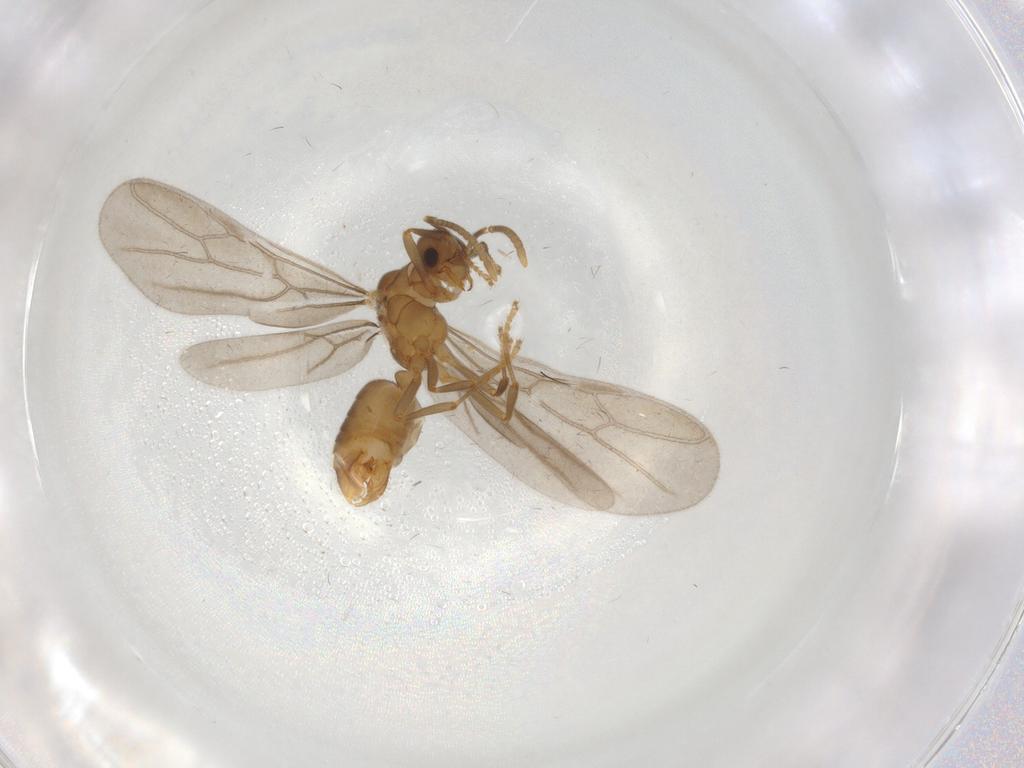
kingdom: Animalia
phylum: Arthropoda
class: Insecta
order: Hymenoptera
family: Formicidae
